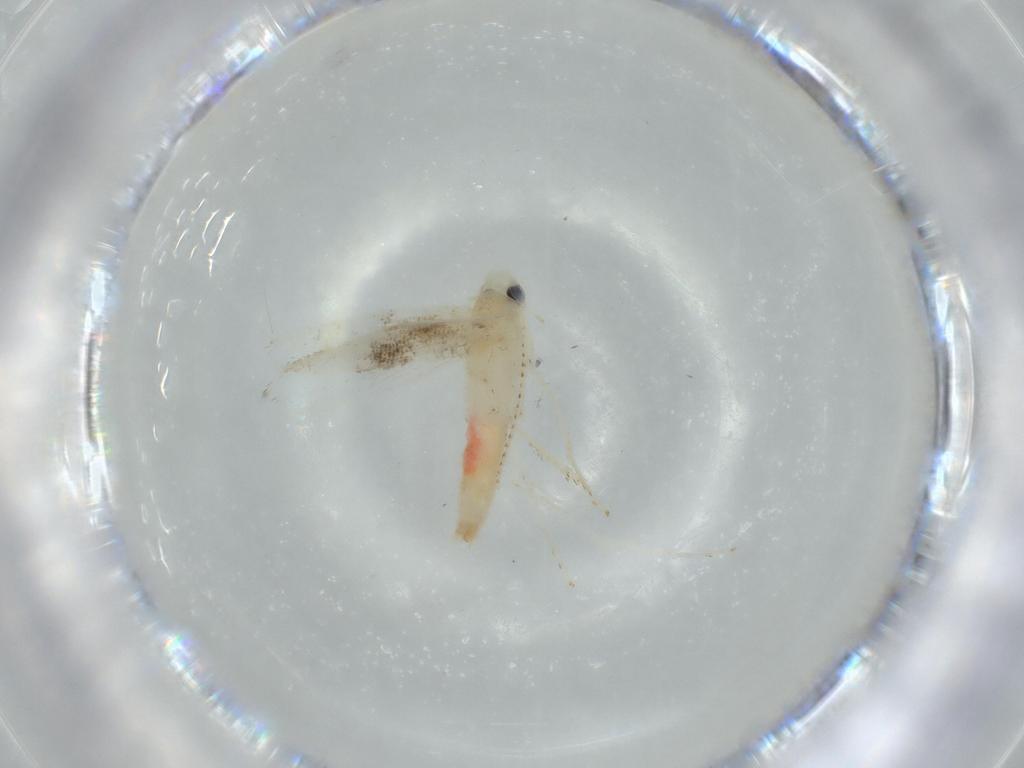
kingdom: Animalia
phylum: Arthropoda
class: Insecta
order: Lepidoptera
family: Gracillariidae
